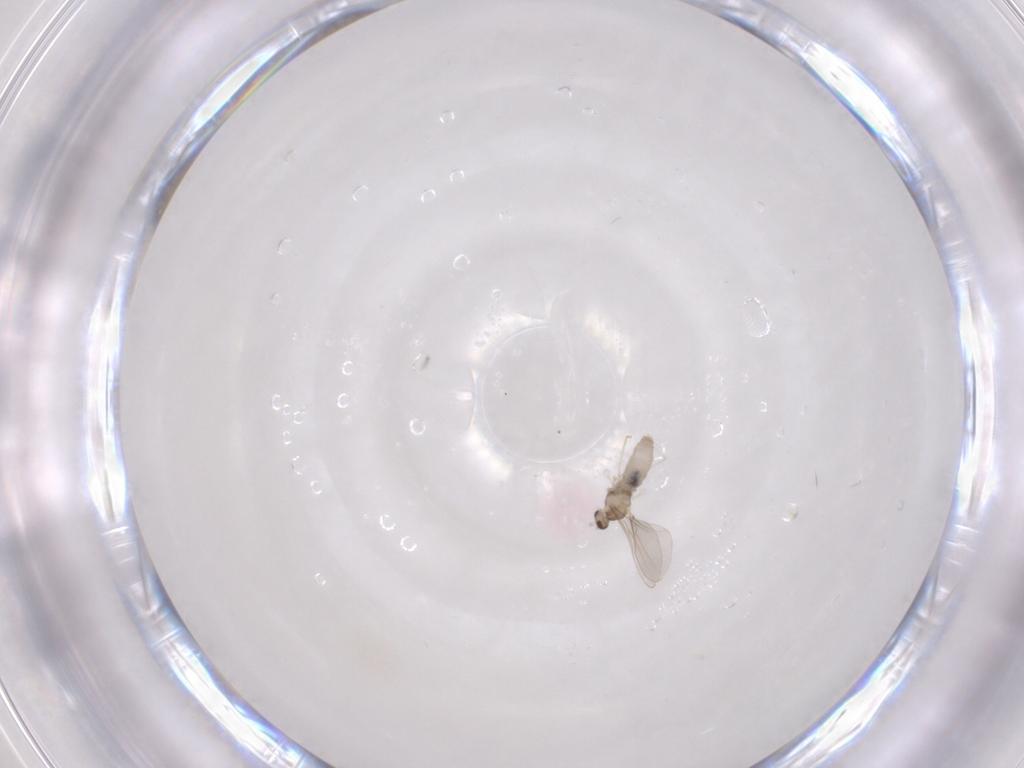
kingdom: Animalia
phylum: Arthropoda
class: Insecta
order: Diptera
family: Cecidomyiidae
